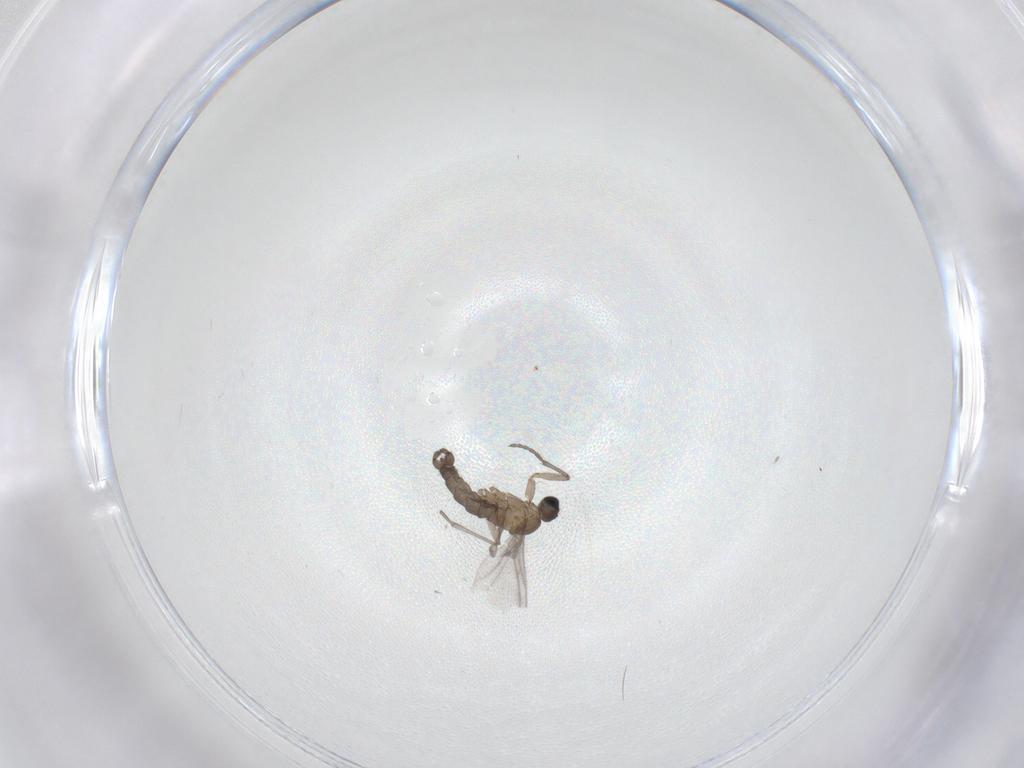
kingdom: Animalia
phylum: Arthropoda
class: Insecta
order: Diptera
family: Sciaridae
